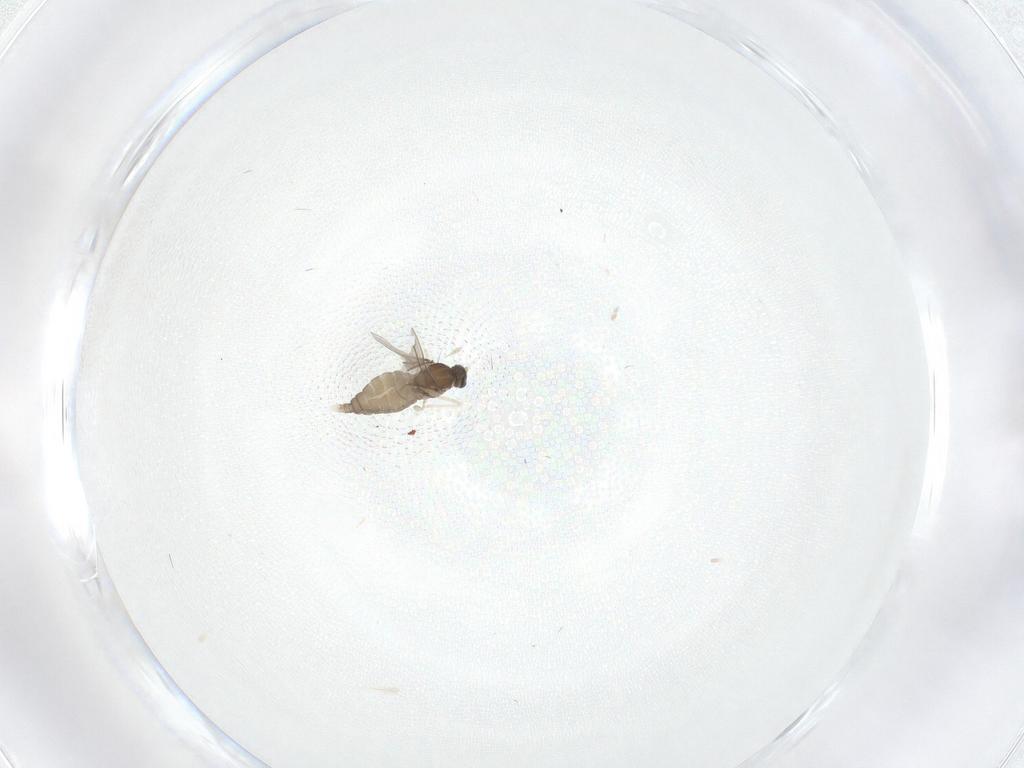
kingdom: Animalia
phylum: Arthropoda
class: Insecta
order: Diptera
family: Cecidomyiidae
